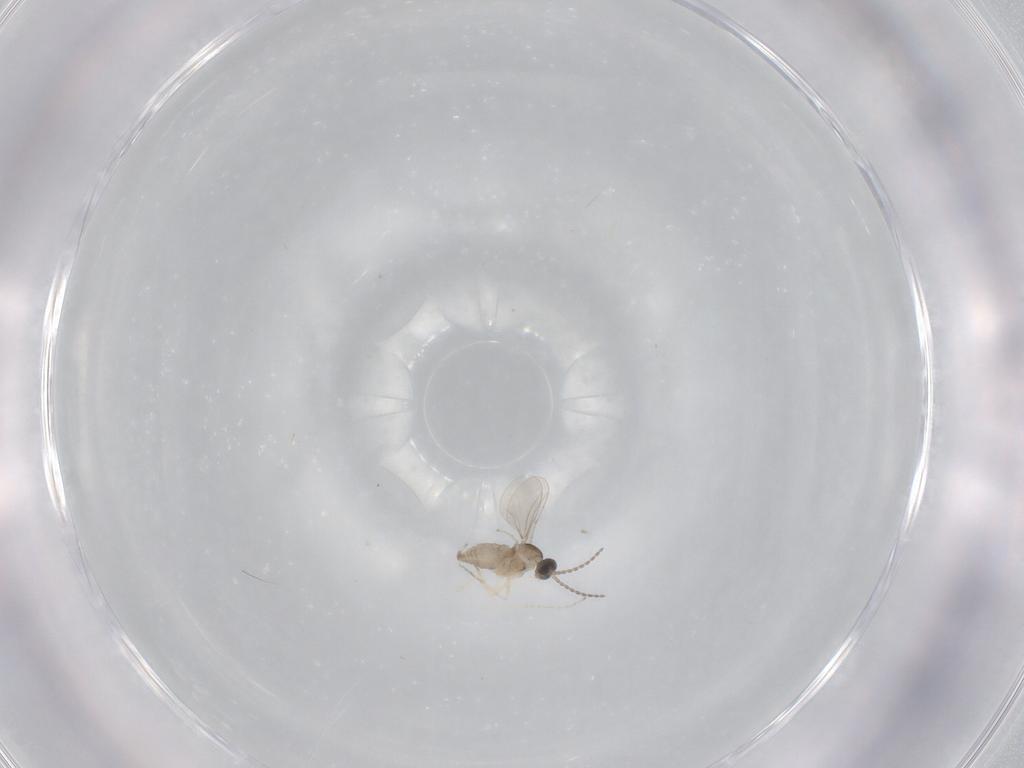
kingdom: Animalia
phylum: Arthropoda
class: Insecta
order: Diptera
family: Cecidomyiidae
